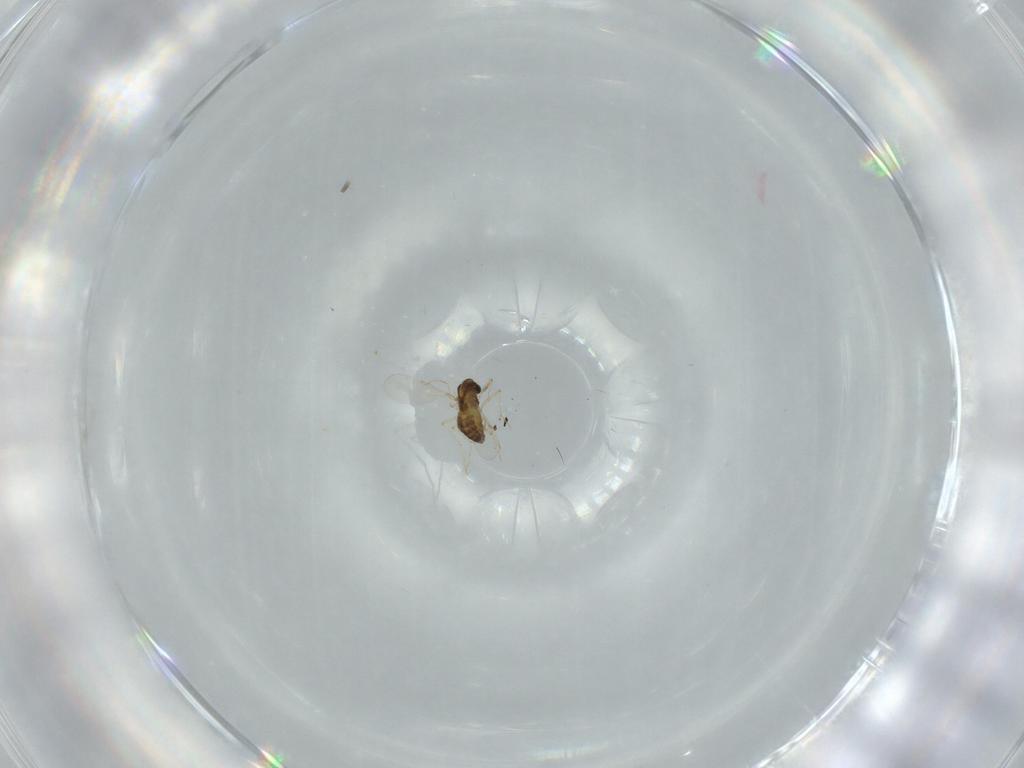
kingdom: Animalia
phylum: Arthropoda
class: Insecta
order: Diptera
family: Chironomidae
